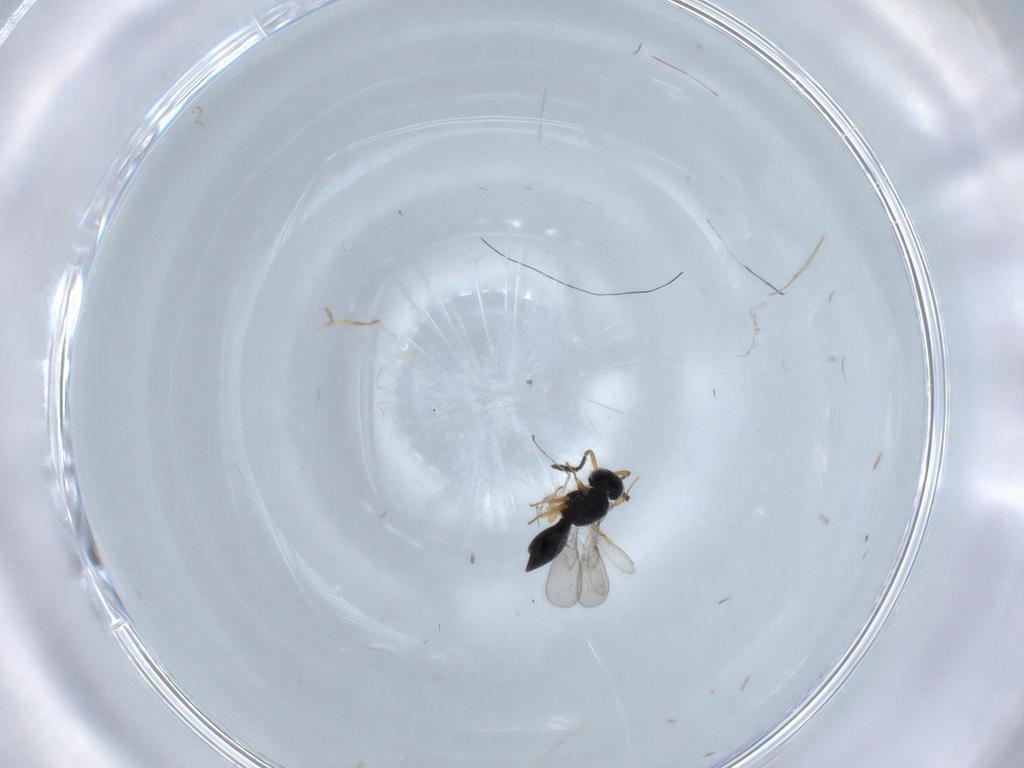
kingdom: Animalia
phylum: Arthropoda
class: Insecta
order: Hymenoptera
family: Scelionidae
